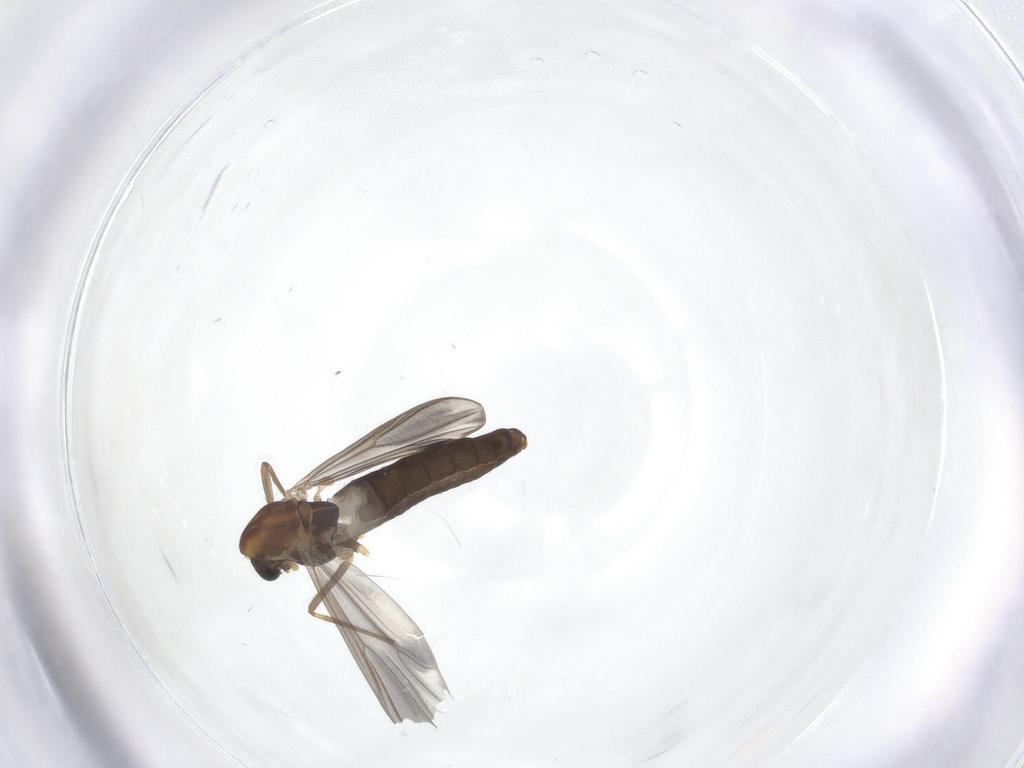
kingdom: Animalia
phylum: Arthropoda
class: Insecta
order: Diptera
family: Chironomidae
